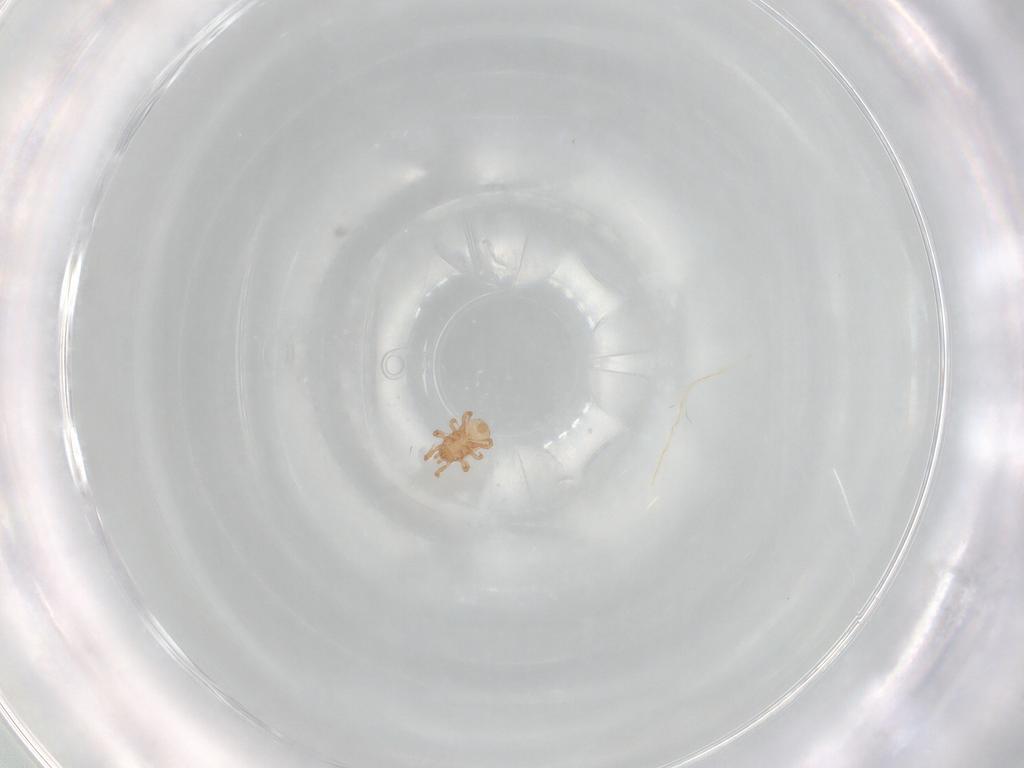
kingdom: Animalia
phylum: Arthropoda
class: Arachnida
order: Mesostigmata
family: Ascidae
